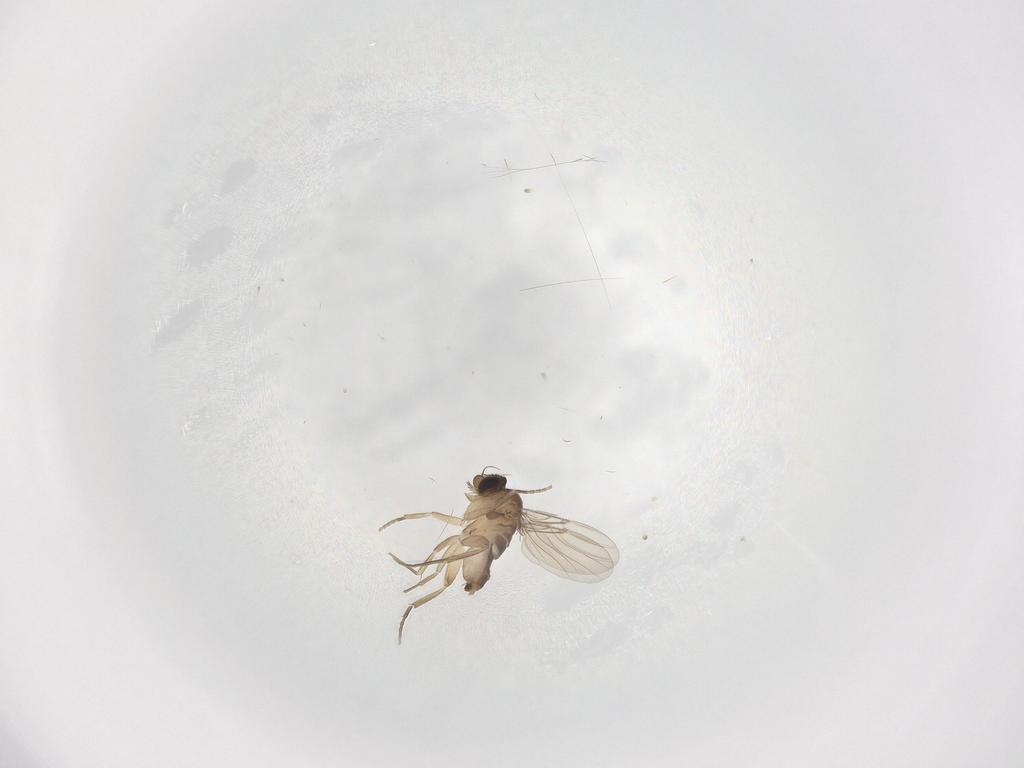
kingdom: Animalia
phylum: Arthropoda
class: Insecta
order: Diptera
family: Phoridae
